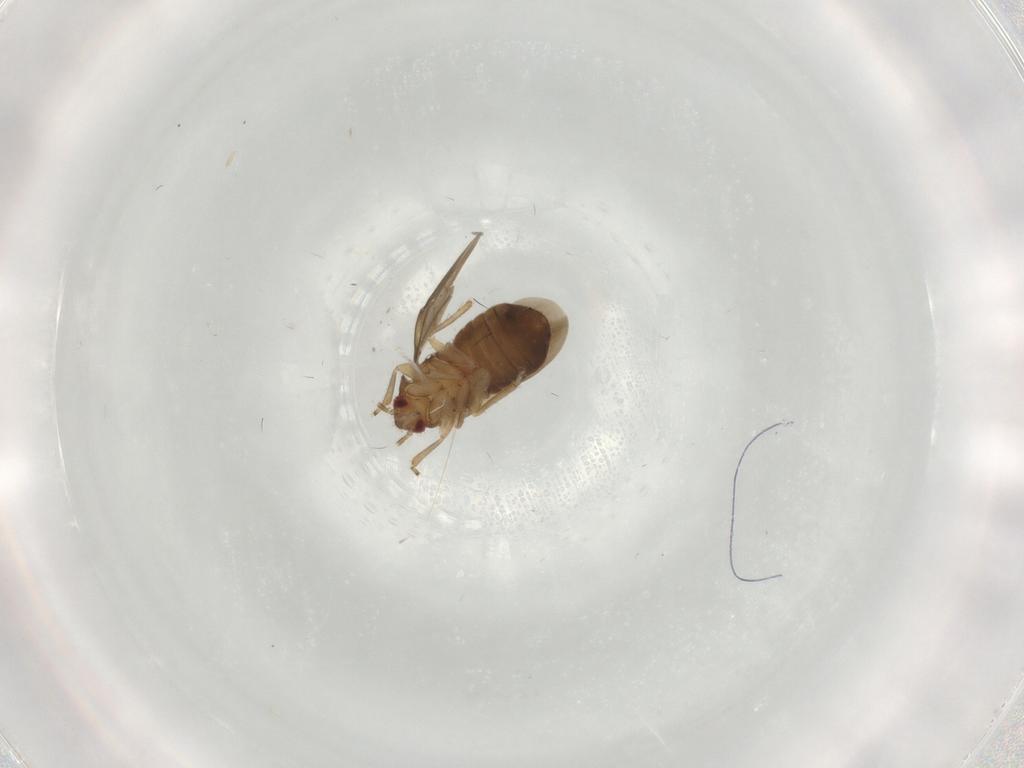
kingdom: Animalia
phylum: Arthropoda
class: Insecta
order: Hemiptera
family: Dipsocoridae
